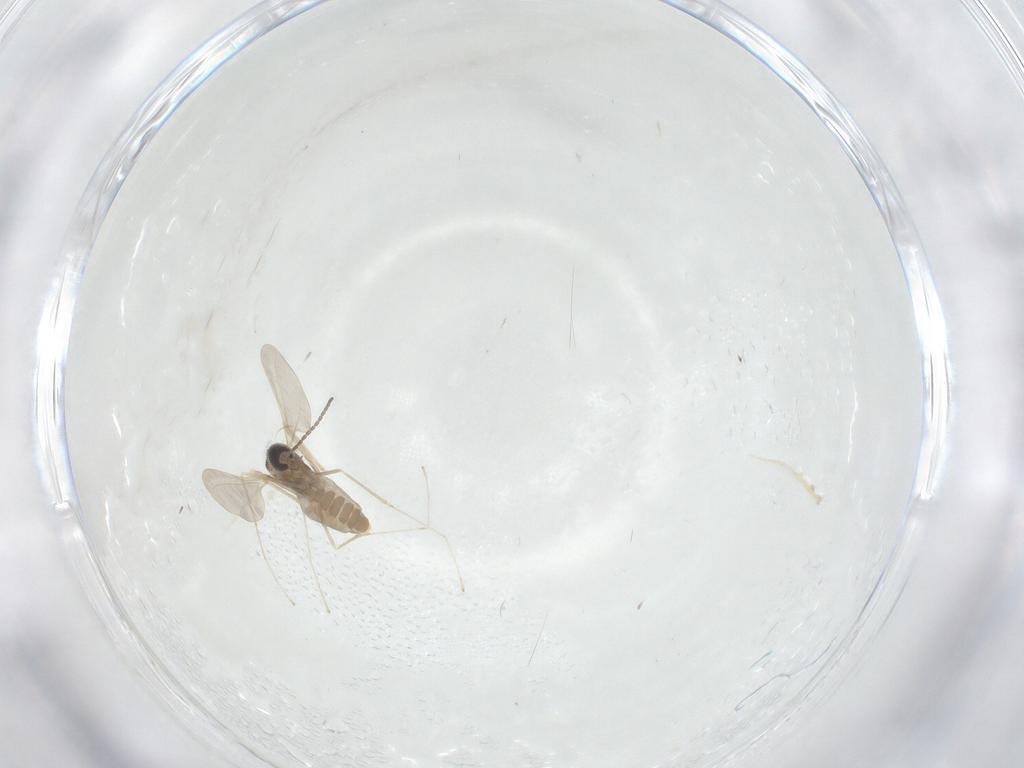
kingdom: Animalia
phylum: Arthropoda
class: Insecta
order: Diptera
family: Cecidomyiidae
